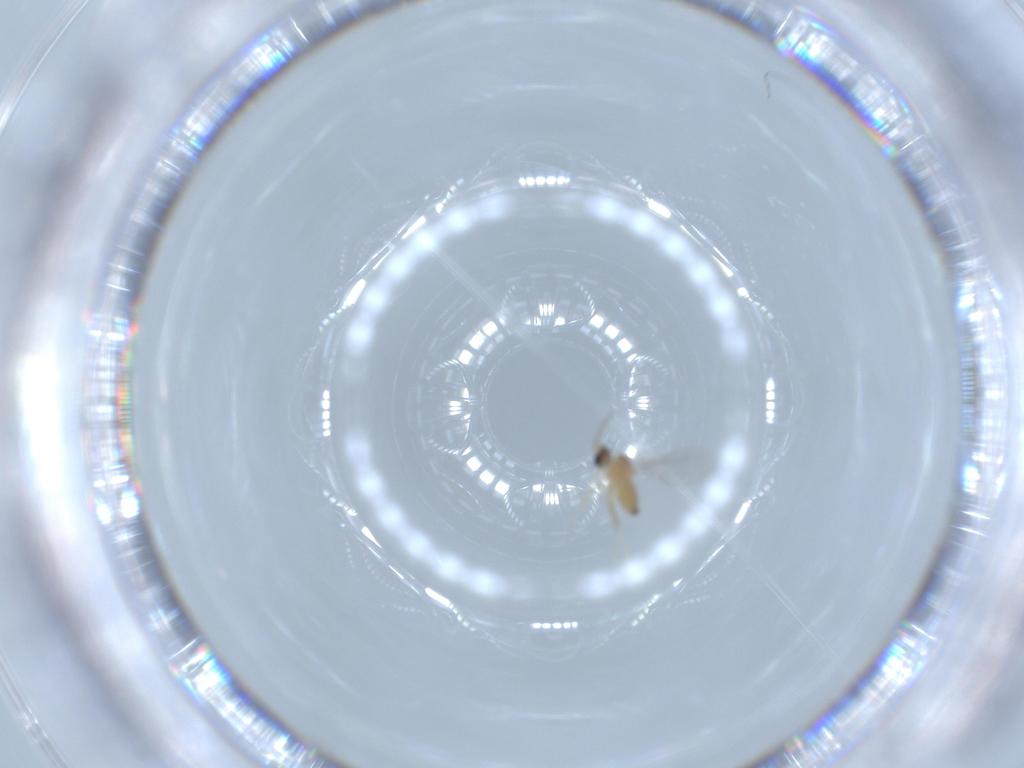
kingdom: Animalia
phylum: Arthropoda
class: Insecta
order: Diptera
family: Cecidomyiidae
